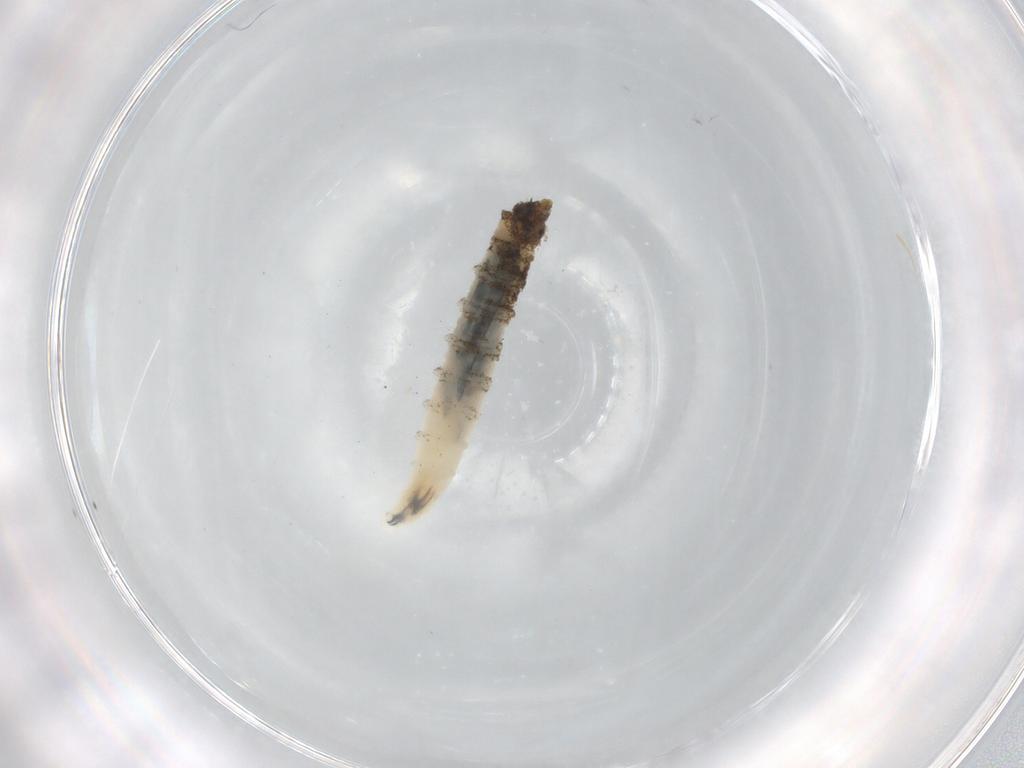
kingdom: Animalia
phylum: Arthropoda
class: Insecta
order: Diptera
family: Drosophilidae
